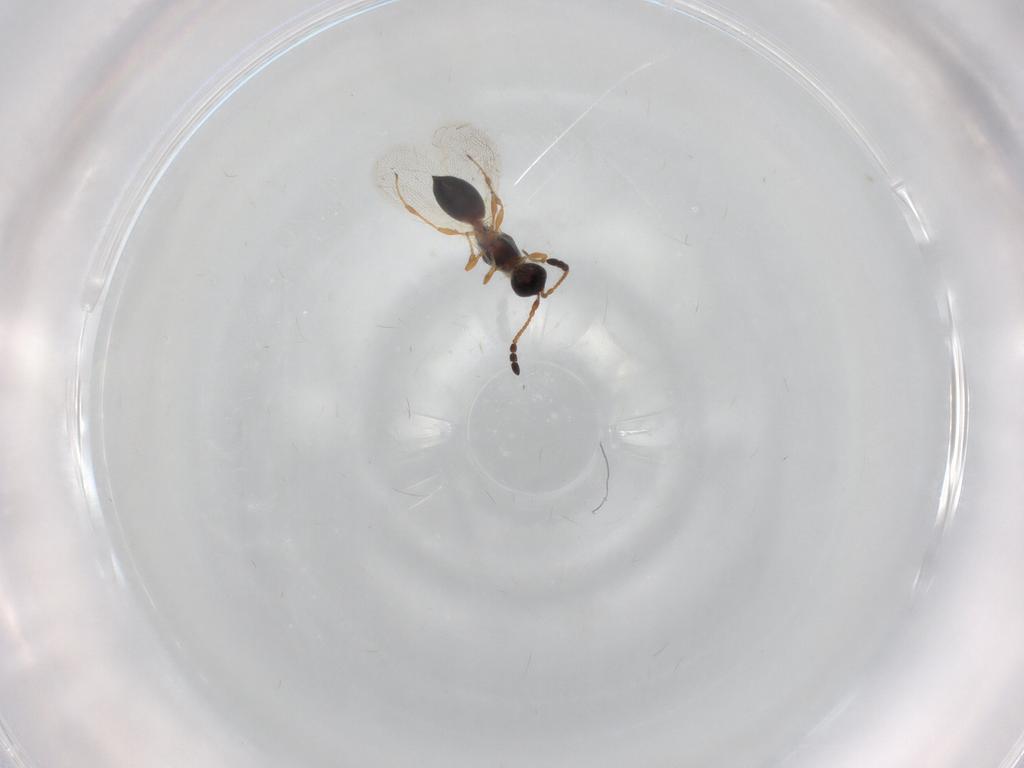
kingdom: Animalia
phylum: Arthropoda
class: Insecta
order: Hymenoptera
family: Diapriidae
